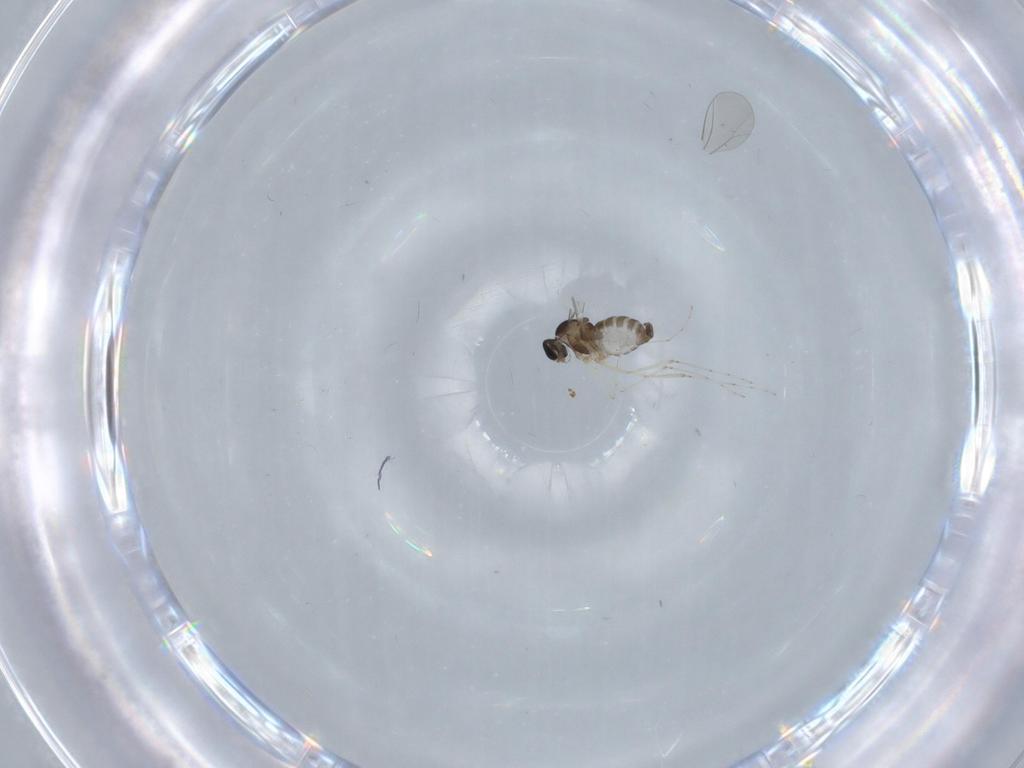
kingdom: Animalia
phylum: Arthropoda
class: Insecta
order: Diptera
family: Cecidomyiidae
